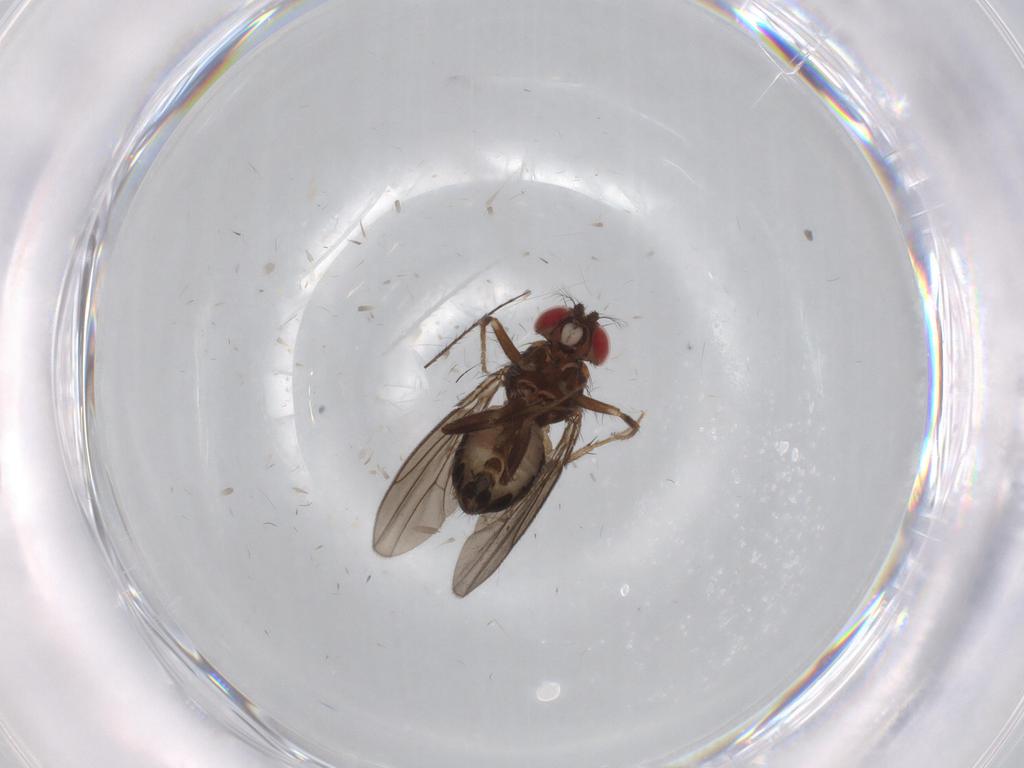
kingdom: Animalia
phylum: Arthropoda
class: Insecta
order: Diptera
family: Drosophilidae
